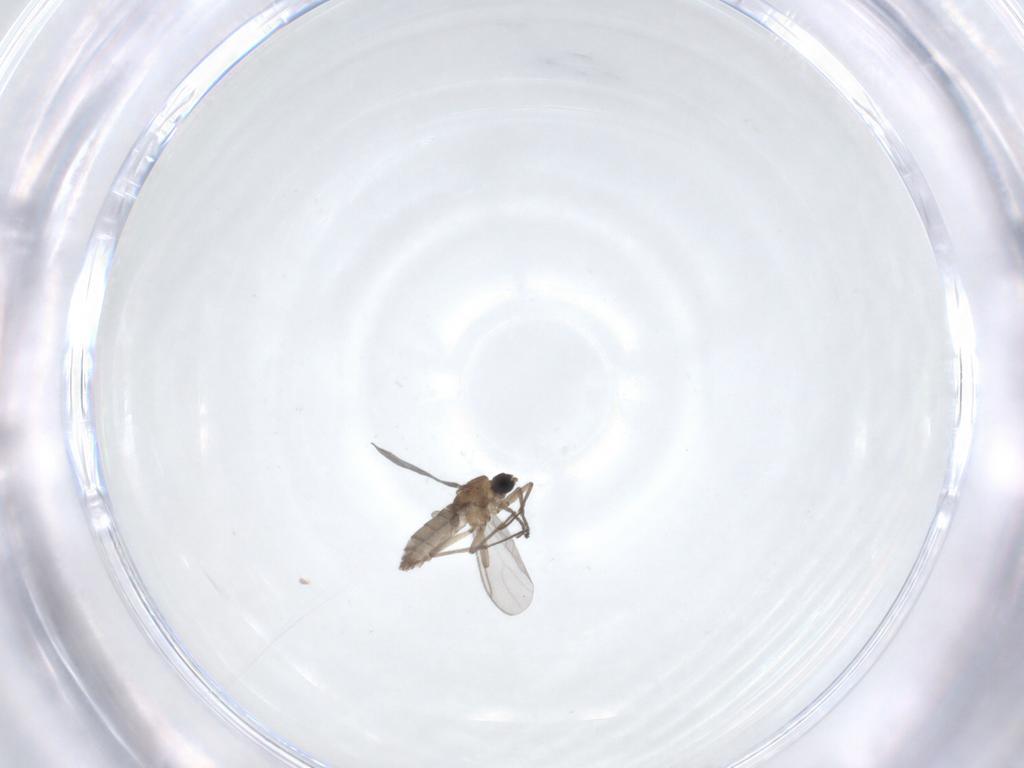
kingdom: Animalia
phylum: Arthropoda
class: Insecta
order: Diptera
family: Sciaridae
